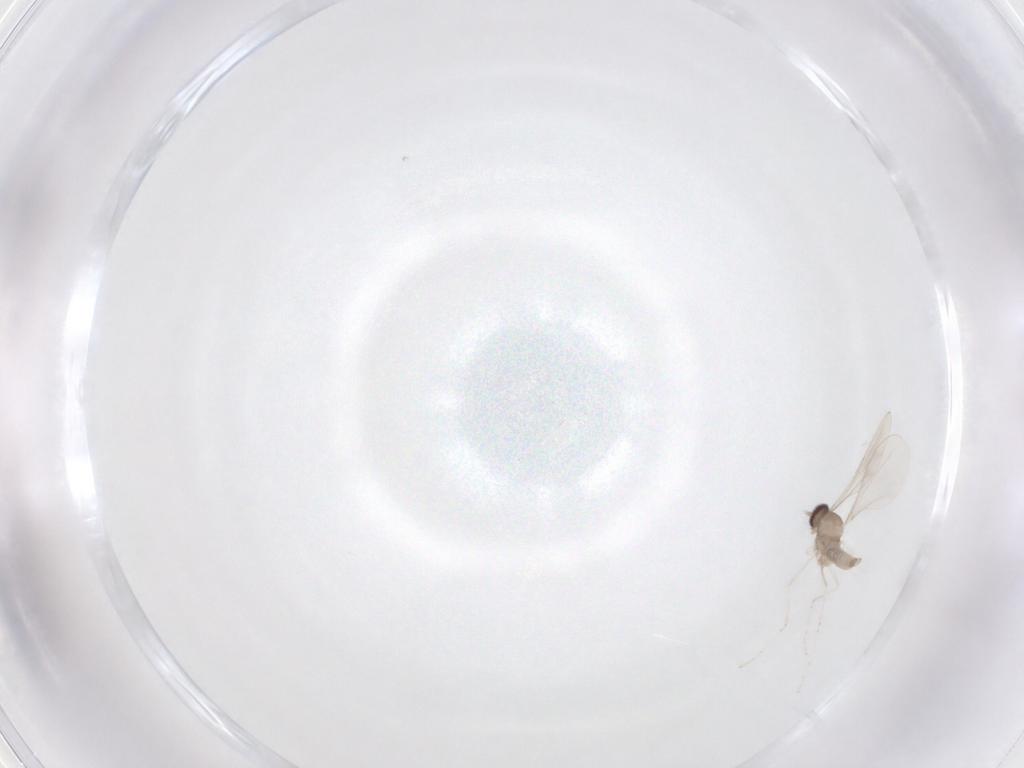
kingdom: Animalia
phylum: Arthropoda
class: Insecta
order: Diptera
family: Cecidomyiidae
